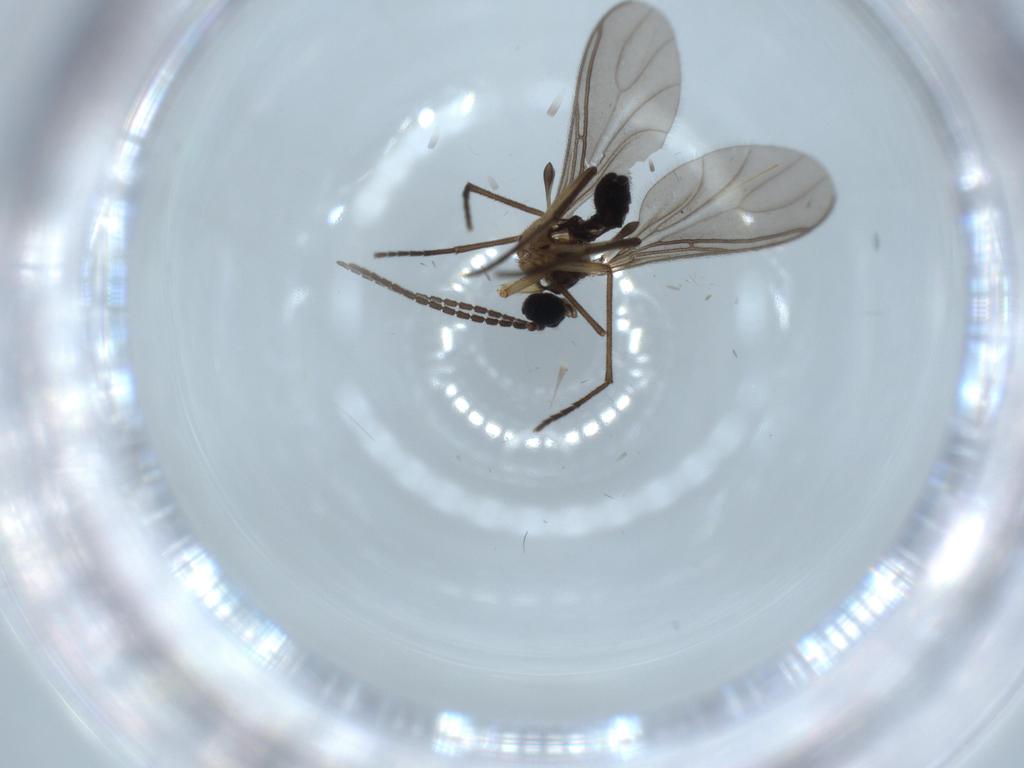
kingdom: Animalia
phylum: Arthropoda
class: Insecta
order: Diptera
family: Sciaridae
